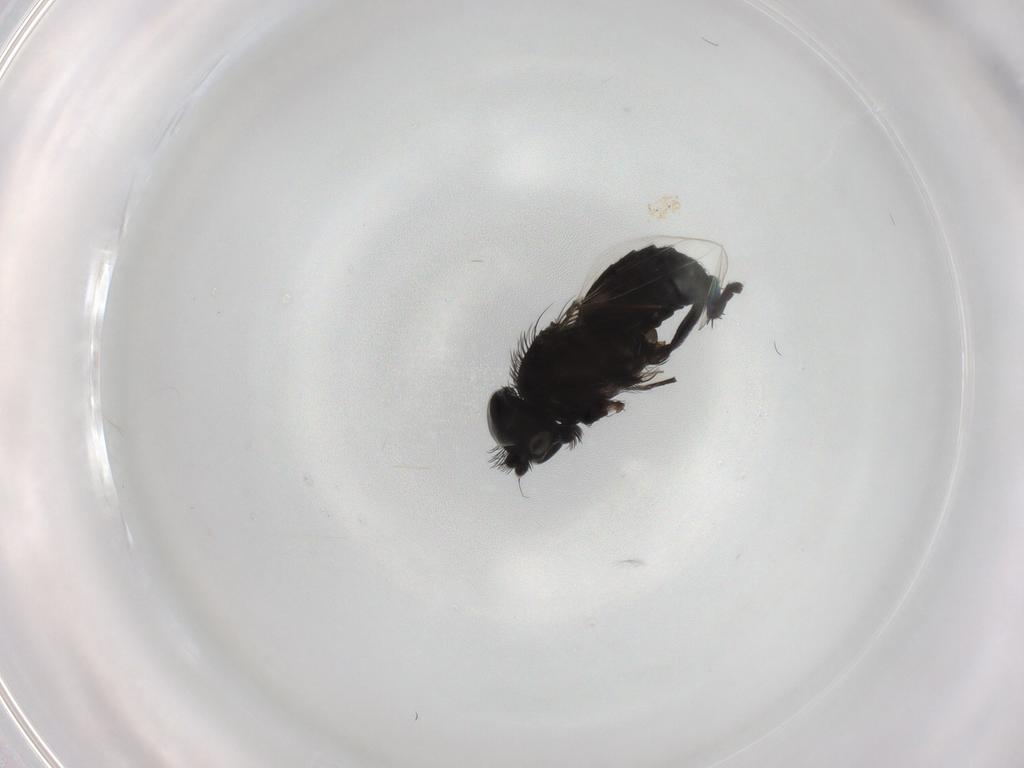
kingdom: Animalia
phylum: Arthropoda
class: Insecta
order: Diptera
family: Phoridae
